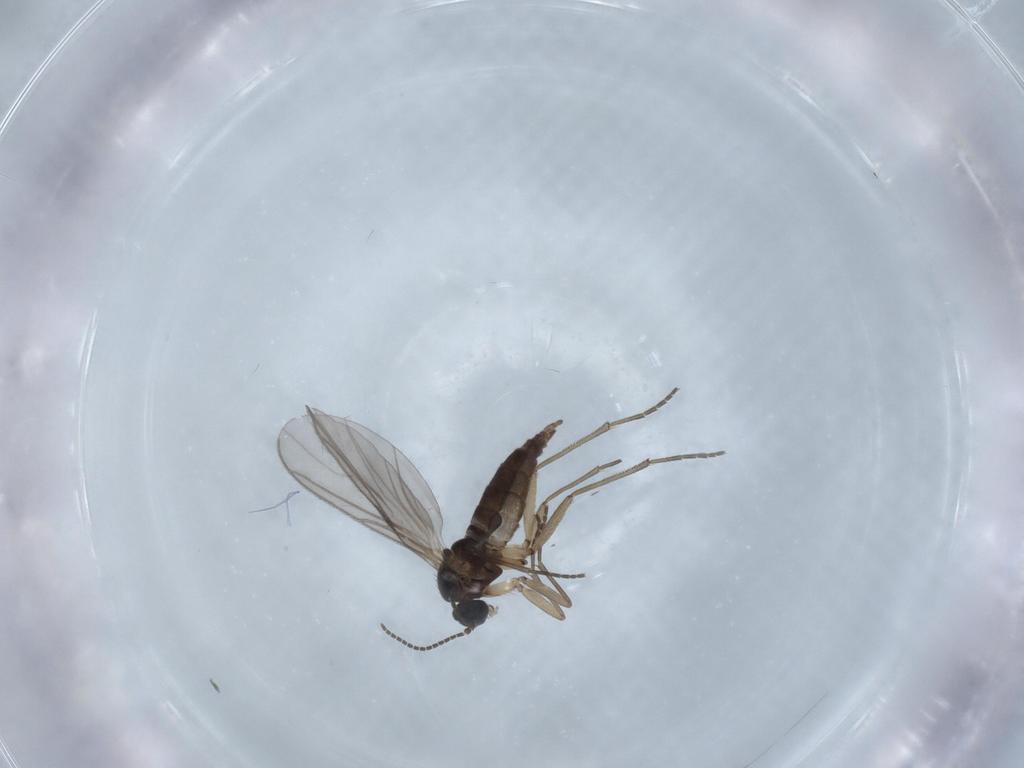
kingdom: Animalia
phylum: Arthropoda
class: Insecta
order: Diptera
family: Sciaridae
